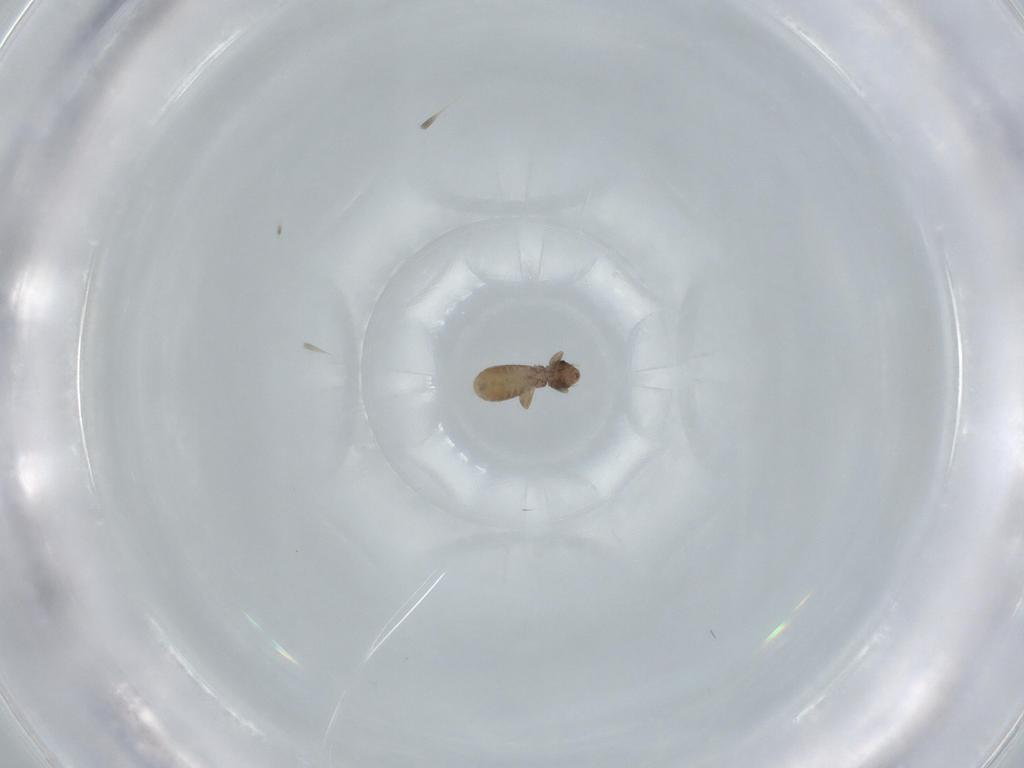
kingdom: Animalia
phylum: Arthropoda
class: Insecta
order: Psocodea
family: Liposcelididae
